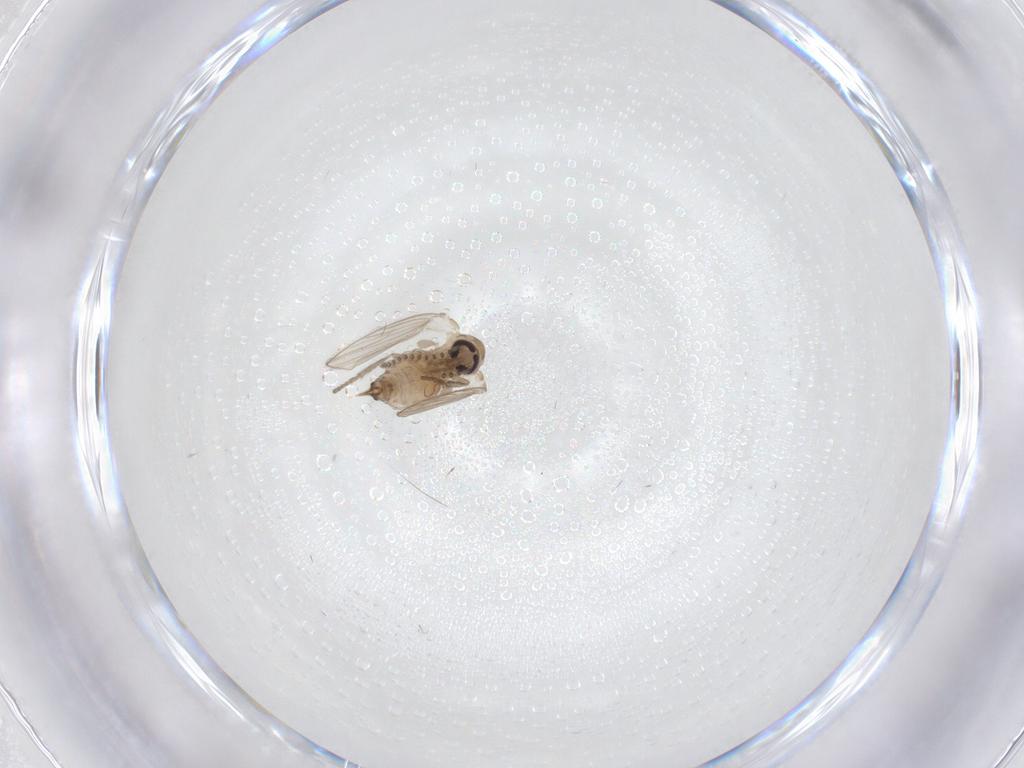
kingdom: Animalia
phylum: Arthropoda
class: Insecta
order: Diptera
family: Psychodidae
